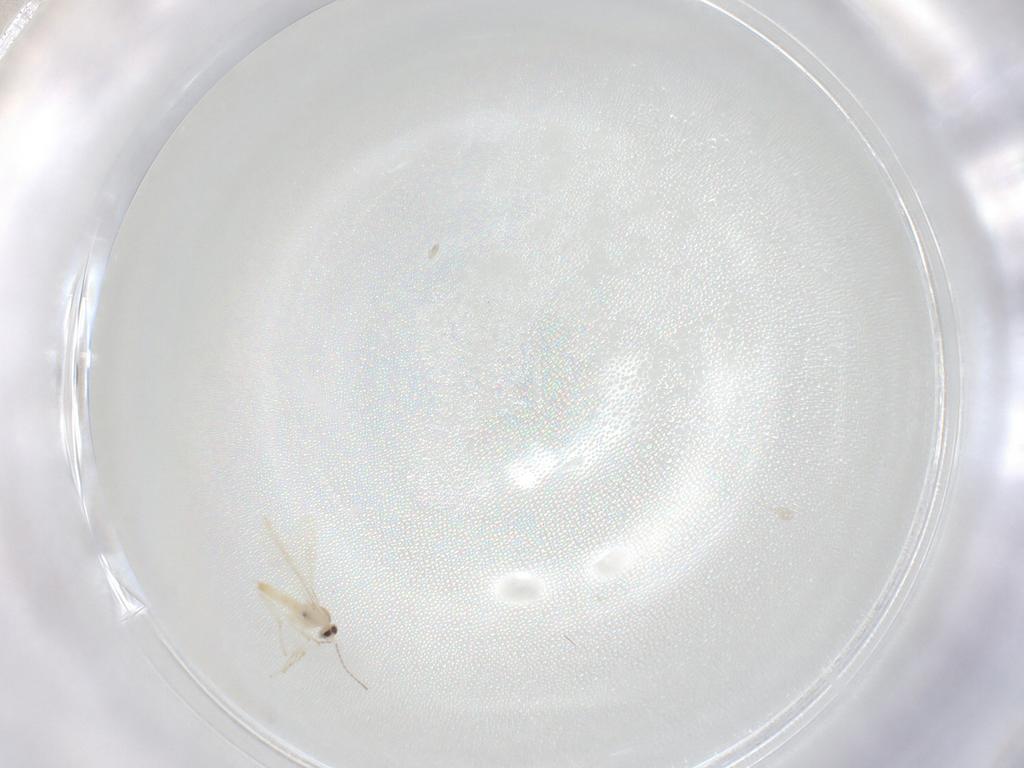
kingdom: Animalia
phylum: Arthropoda
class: Insecta
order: Diptera
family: Cecidomyiidae
